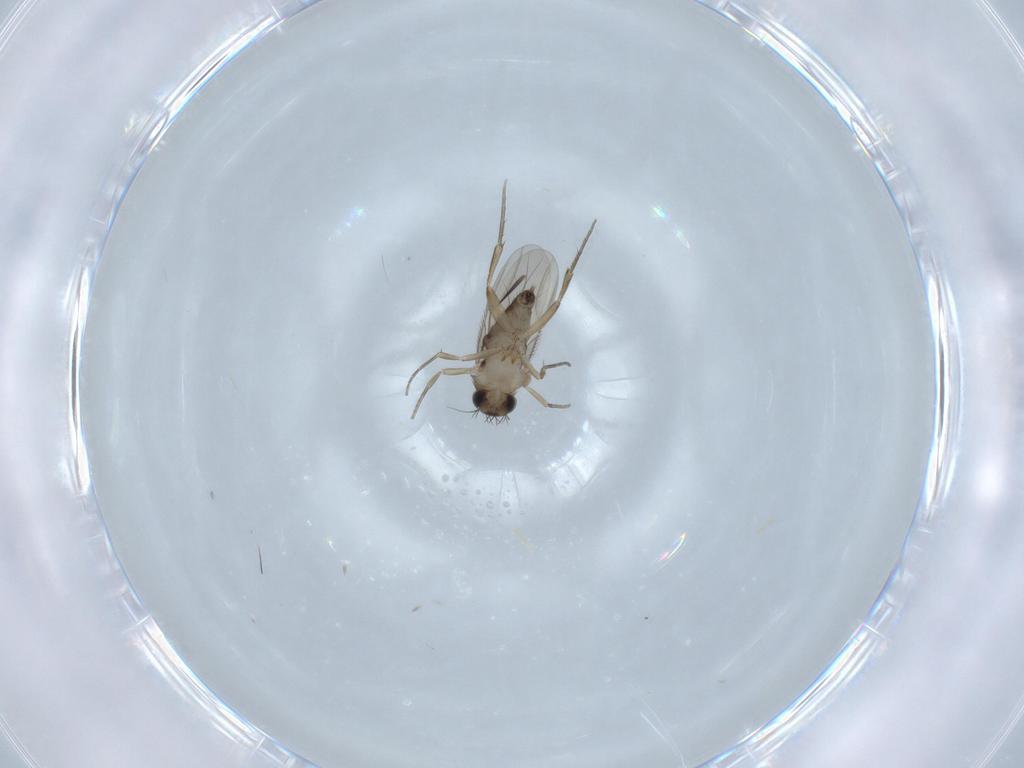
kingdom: Animalia
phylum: Arthropoda
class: Insecta
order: Diptera
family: Phoridae
